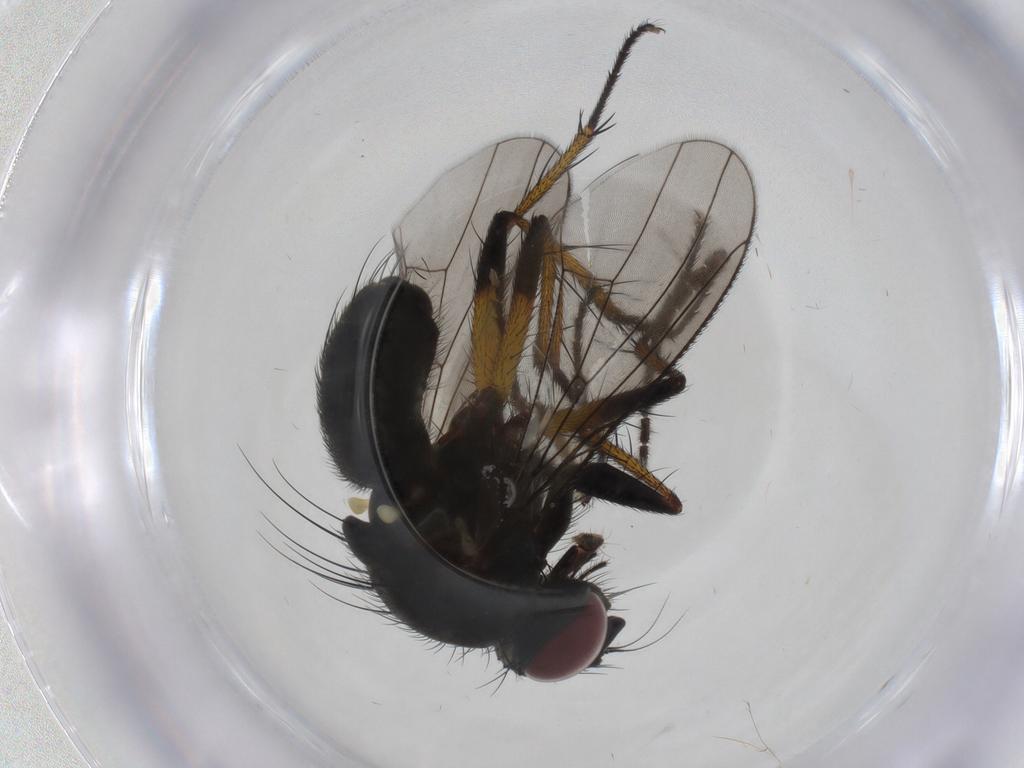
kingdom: Animalia
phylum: Arthropoda
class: Insecta
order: Diptera
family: Muscidae
